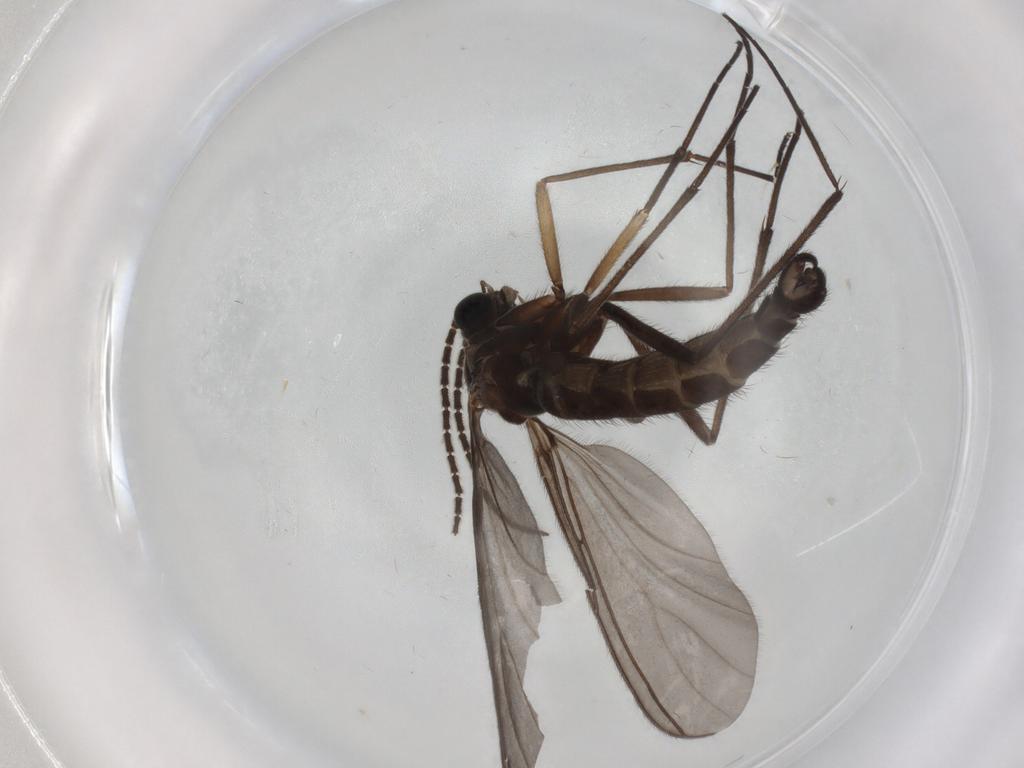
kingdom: Animalia
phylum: Arthropoda
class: Insecta
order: Diptera
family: Sciaridae
